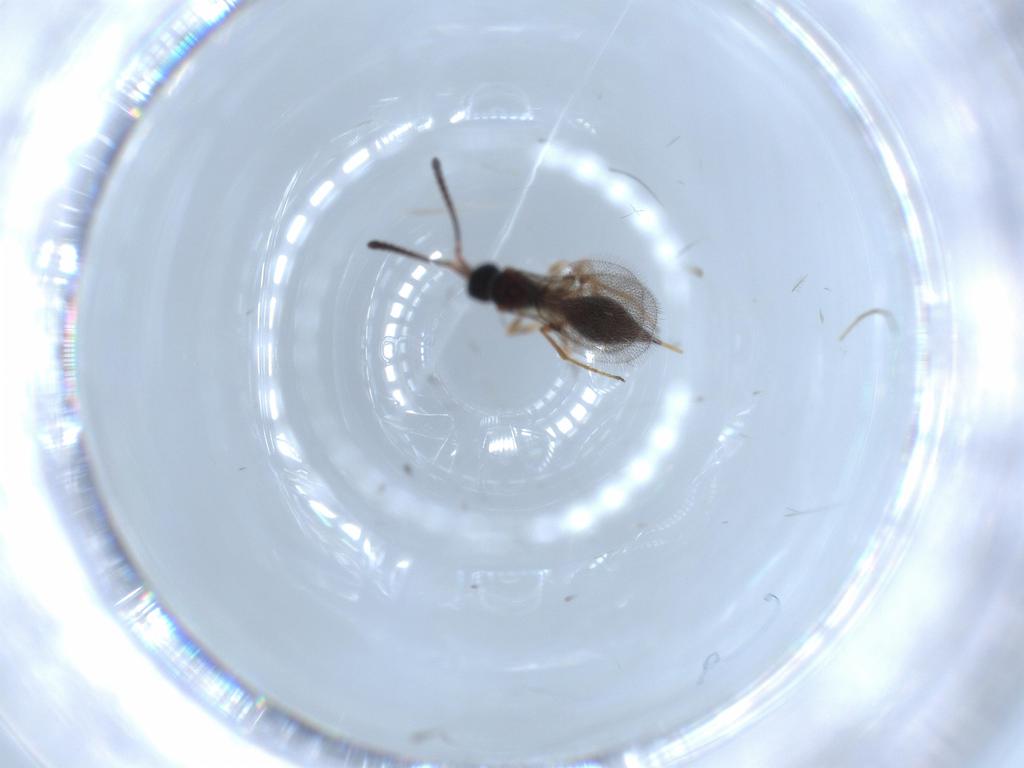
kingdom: Animalia
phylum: Arthropoda
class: Insecta
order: Hymenoptera
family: Diapriidae
